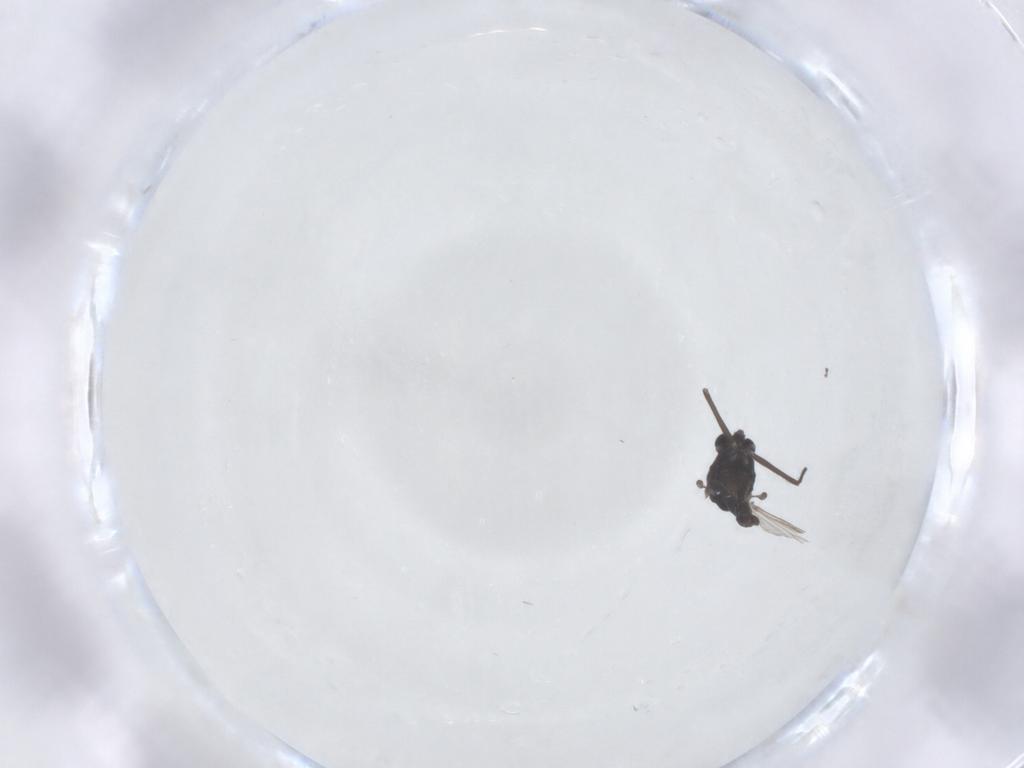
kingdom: Animalia
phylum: Arthropoda
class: Insecta
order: Diptera
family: Chironomidae
